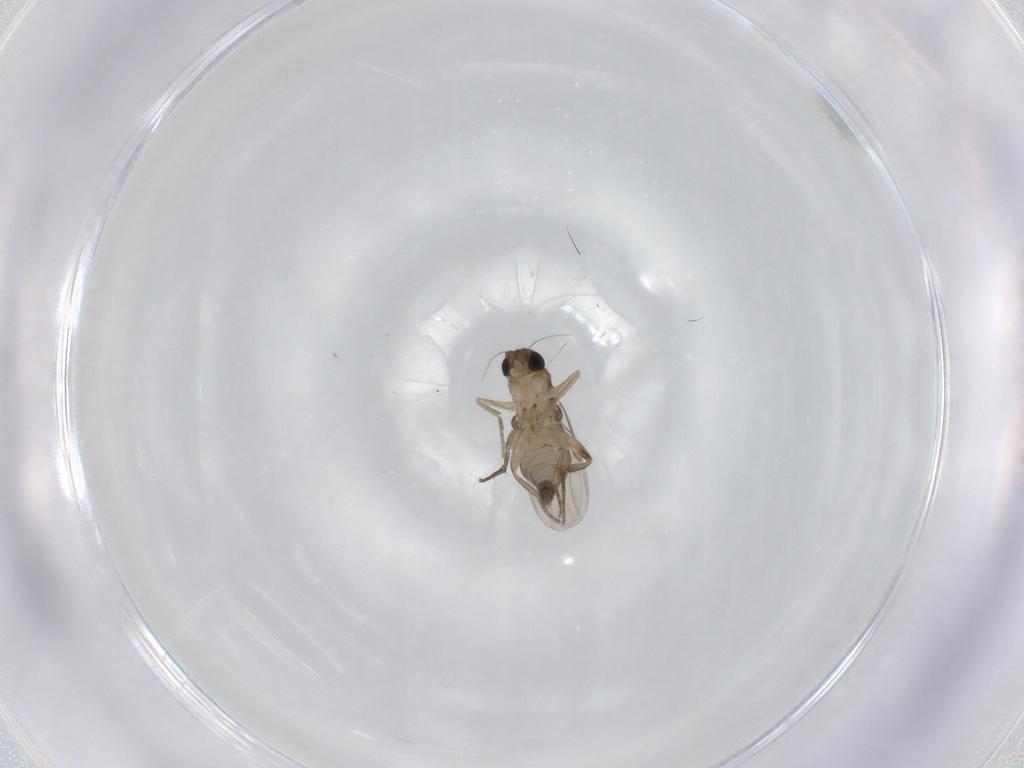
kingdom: Animalia
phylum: Arthropoda
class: Insecta
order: Diptera
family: Phoridae
